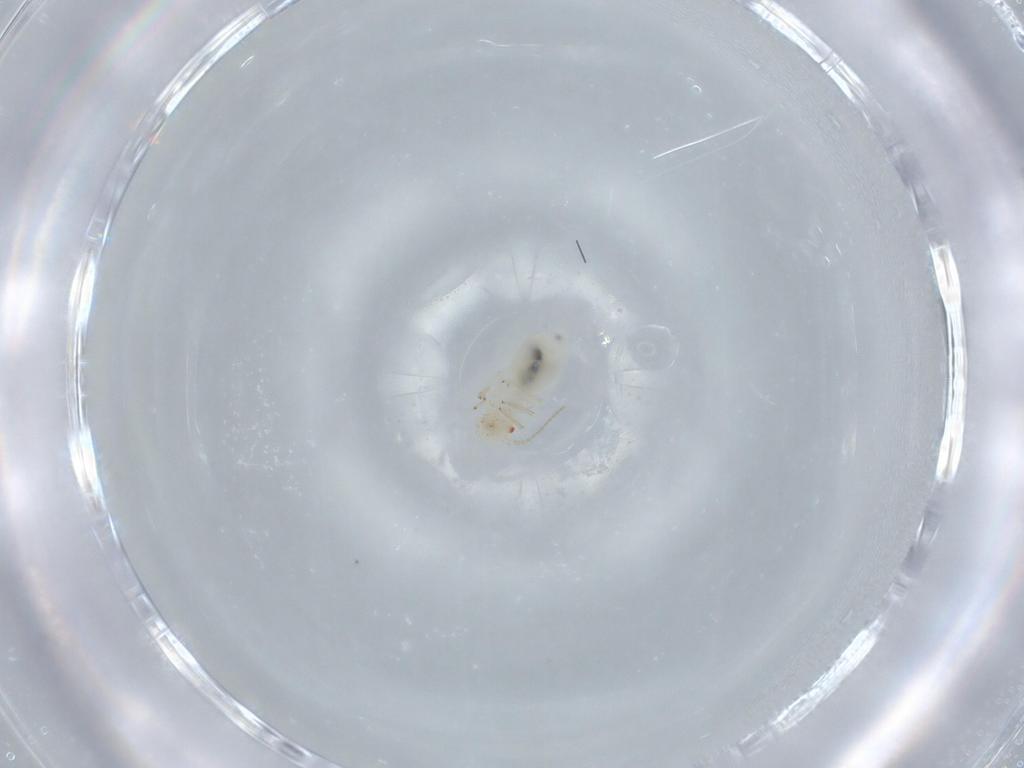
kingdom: Animalia
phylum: Arthropoda
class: Insecta
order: Psocodea
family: Caeciliusidae
